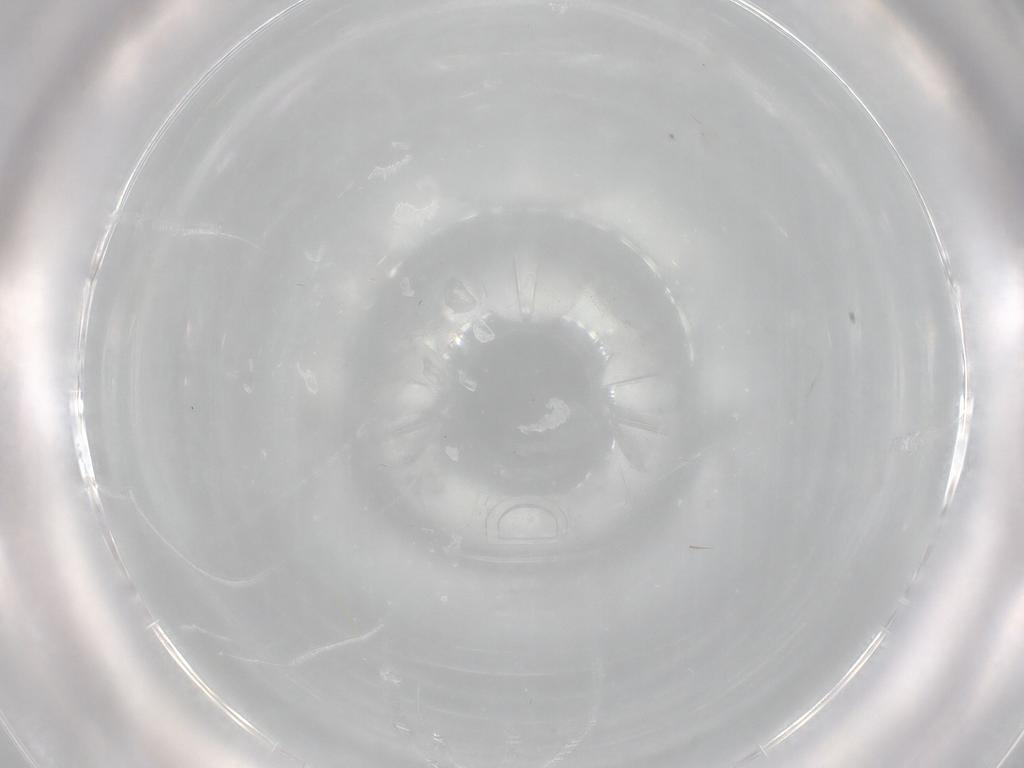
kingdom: Animalia
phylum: Arthropoda
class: Insecta
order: Diptera
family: Chironomidae
